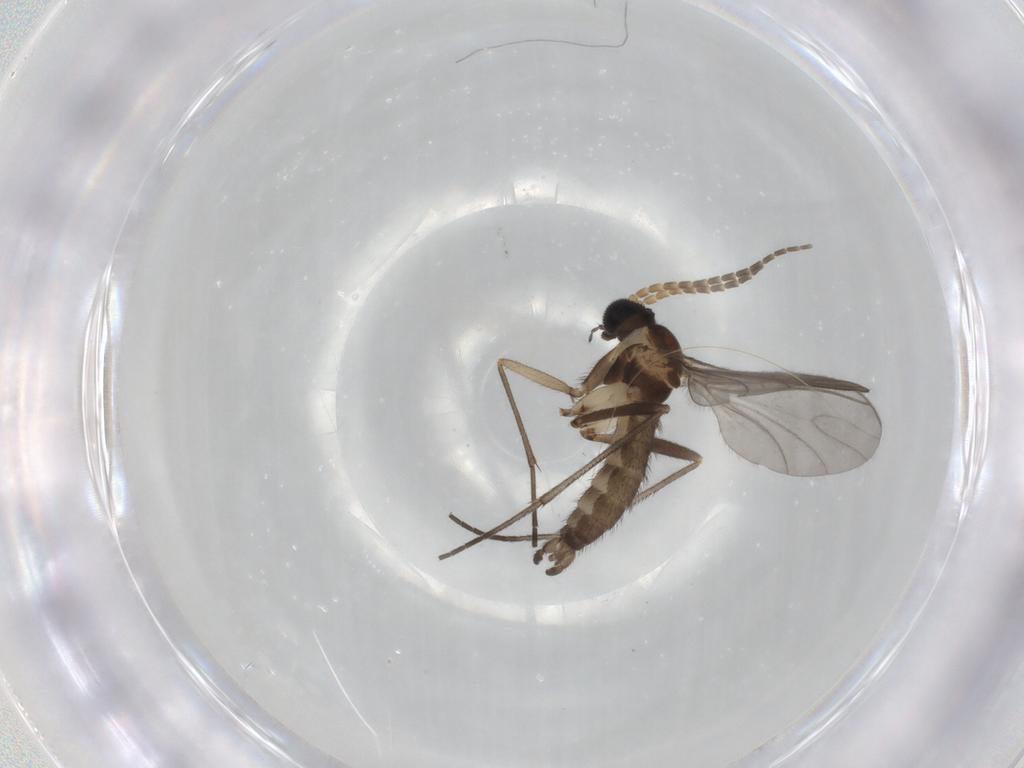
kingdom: Animalia
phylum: Arthropoda
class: Insecta
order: Diptera
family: Sciaridae
